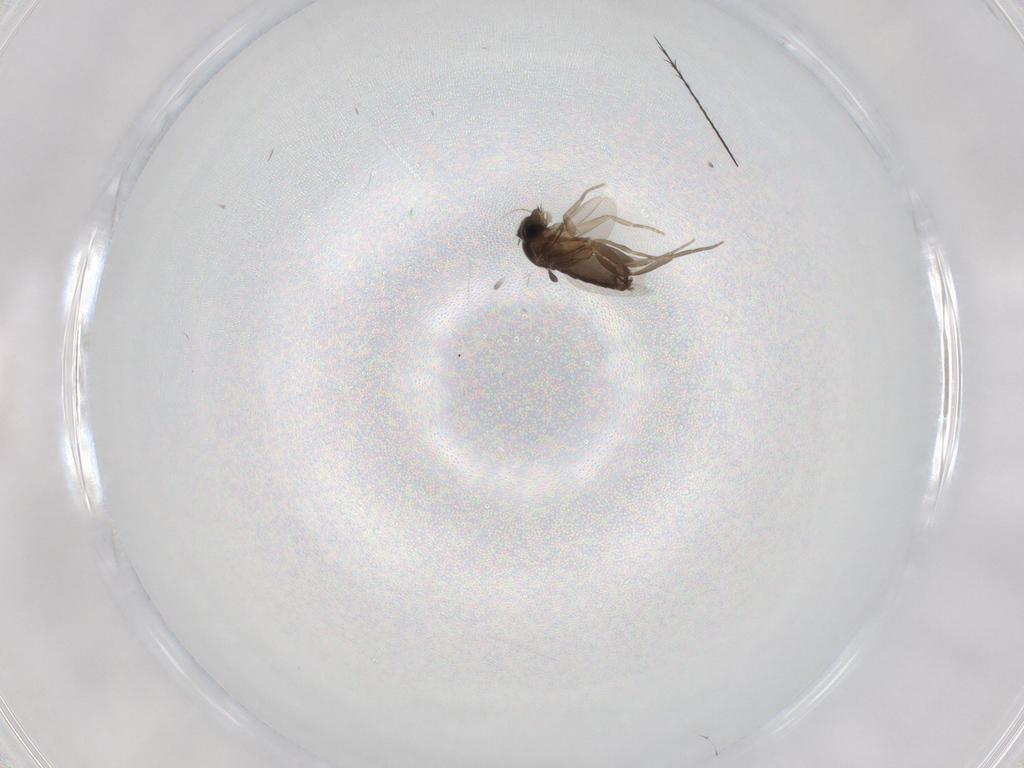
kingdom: Animalia
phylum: Arthropoda
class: Insecta
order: Diptera
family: Phoridae
